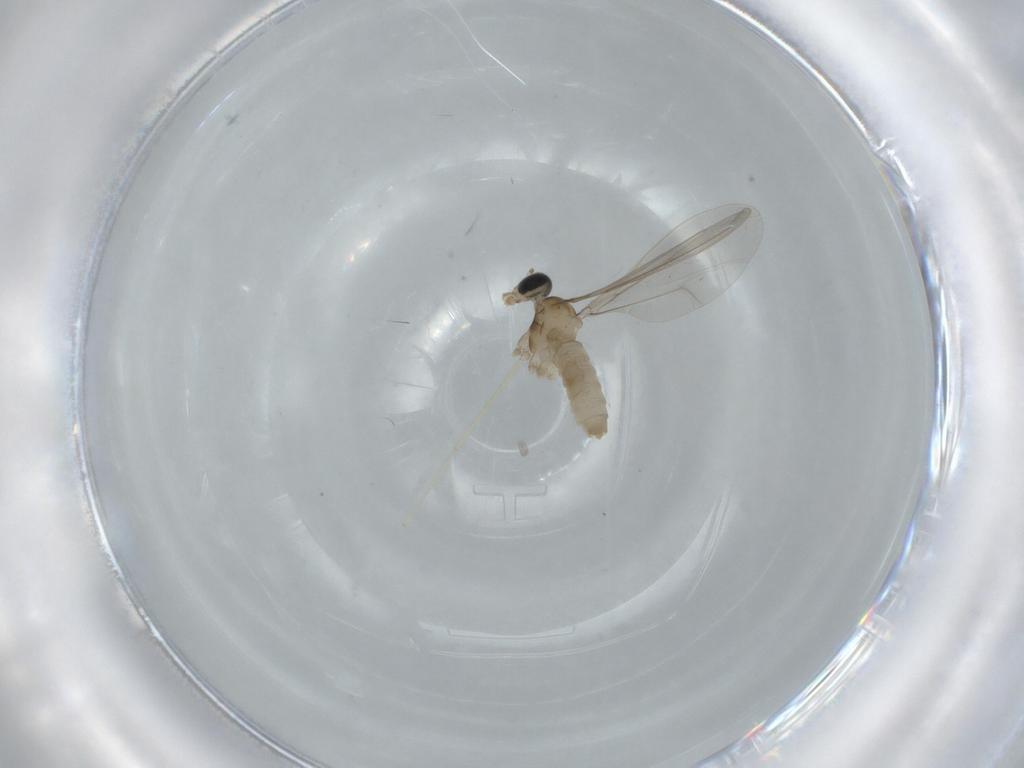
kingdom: Animalia
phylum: Arthropoda
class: Insecta
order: Diptera
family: Cecidomyiidae
